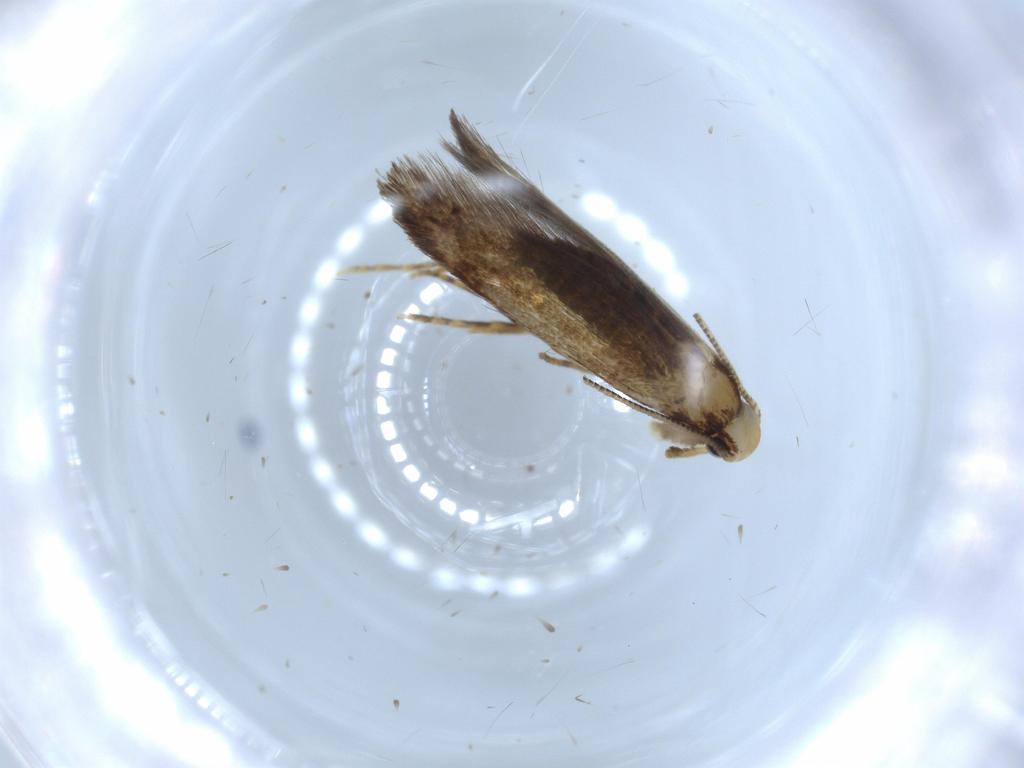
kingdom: Animalia
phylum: Arthropoda
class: Insecta
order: Lepidoptera
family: Tineidae
